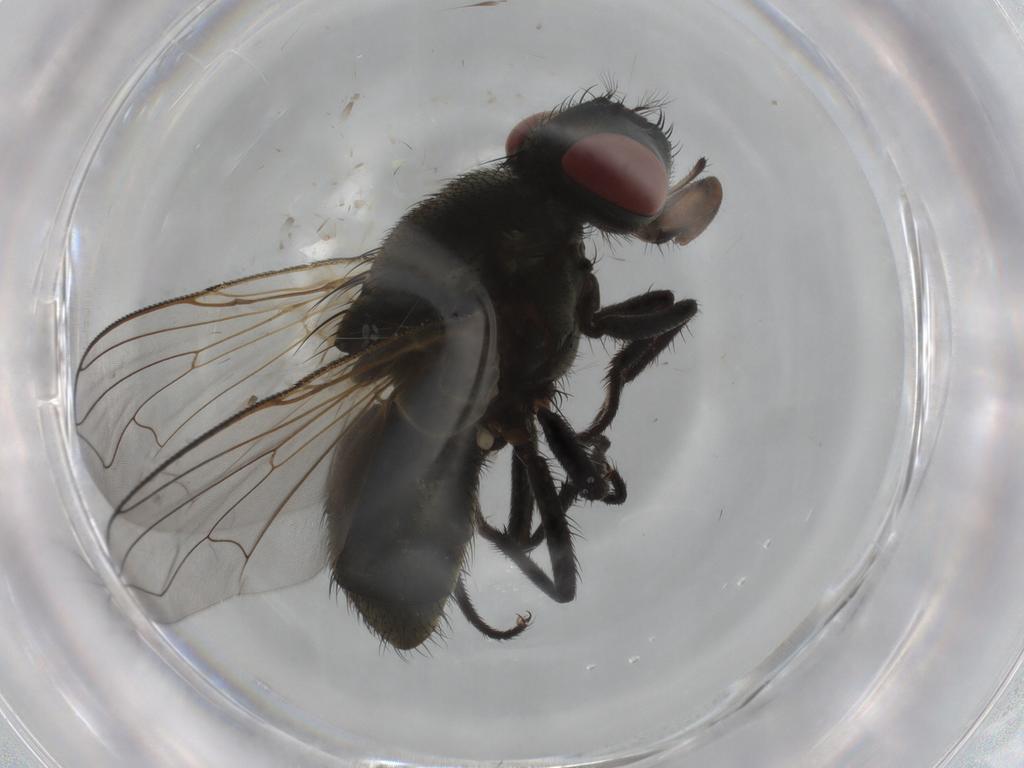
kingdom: Animalia
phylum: Arthropoda
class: Insecta
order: Diptera
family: Muscidae
